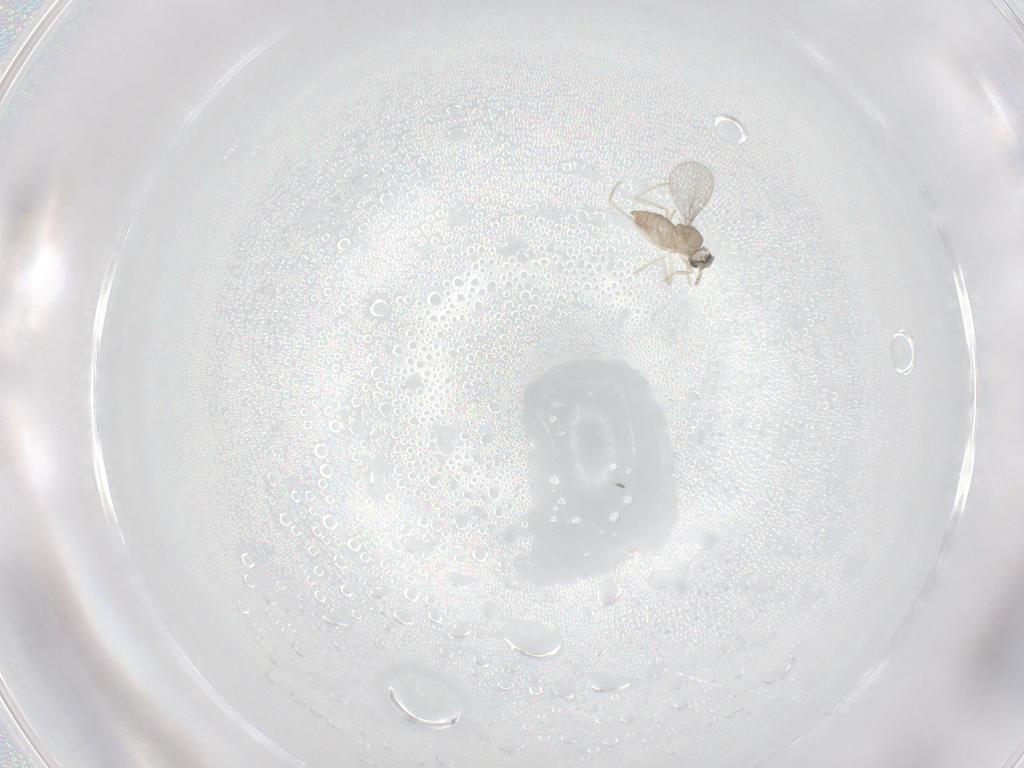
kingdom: Animalia
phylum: Arthropoda
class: Insecta
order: Diptera
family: Cecidomyiidae
